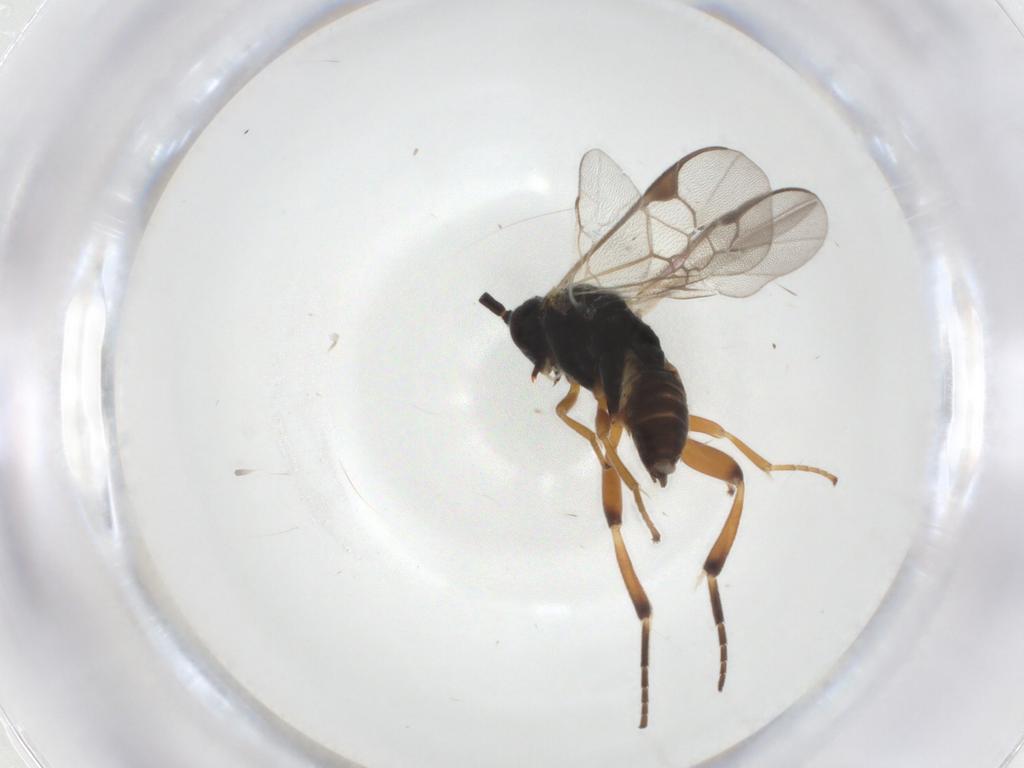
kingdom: Animalia
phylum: Arthropoda
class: Insecta
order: Hymenoptera
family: Braconidae
